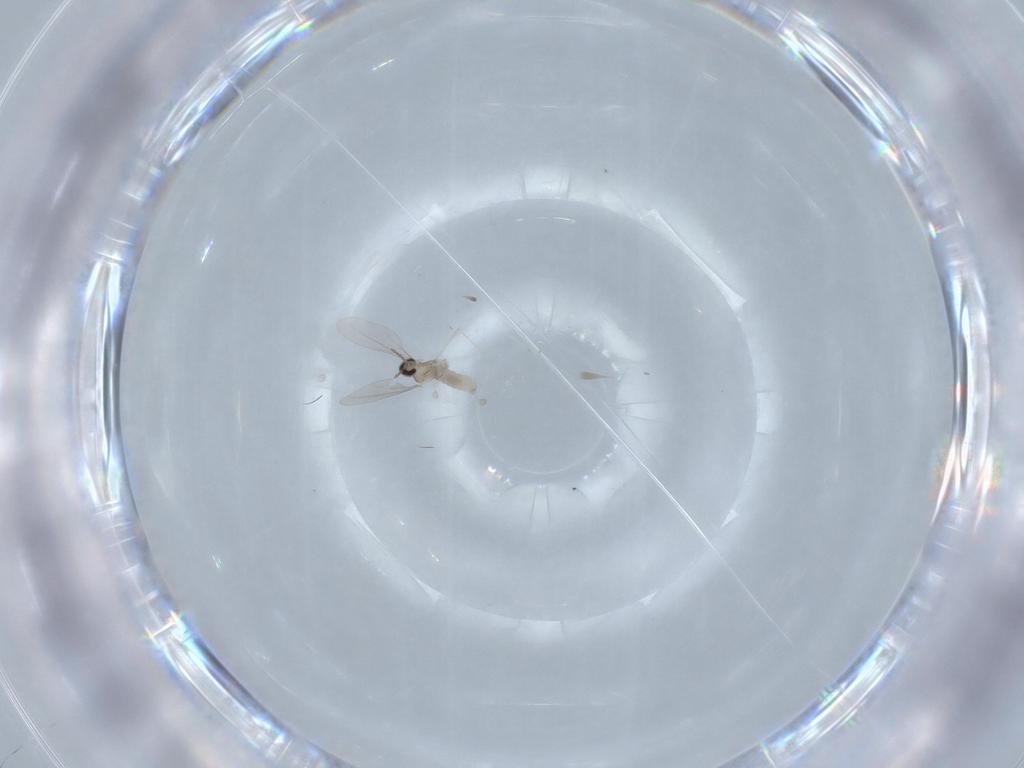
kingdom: Animalia
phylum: Arthropoda
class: Insecta
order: Diptera
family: Cecidomyiidae
